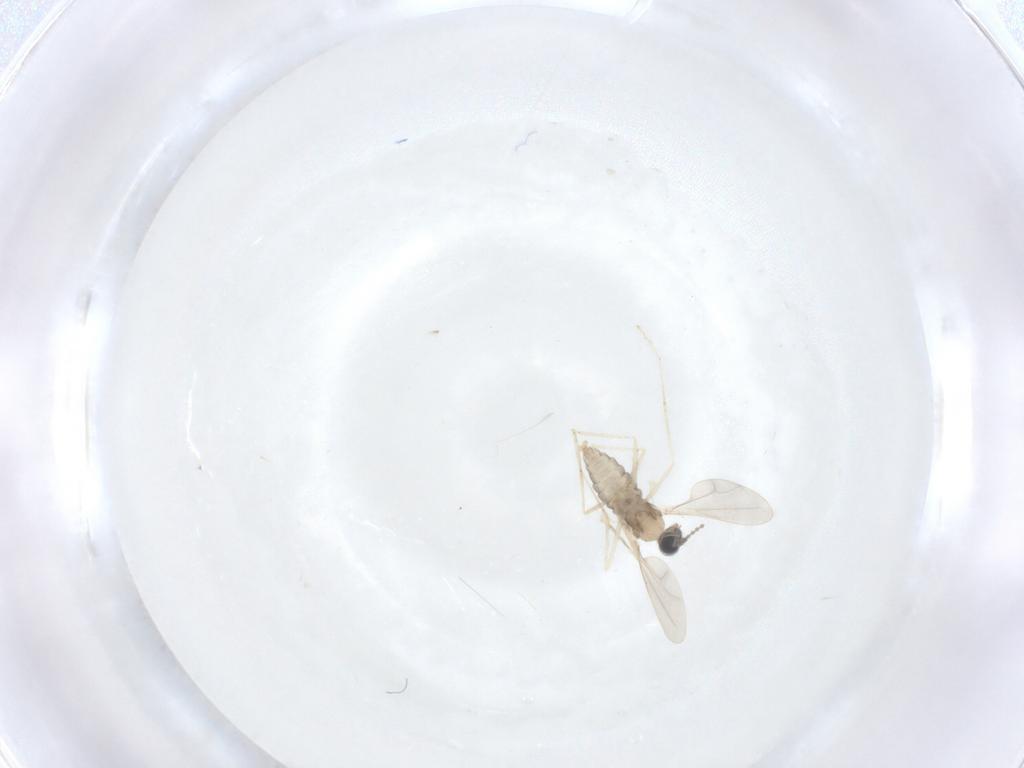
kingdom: Animalia
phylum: Arthropoda
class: Insecta
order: Diptera
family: Cecidomyiidae
